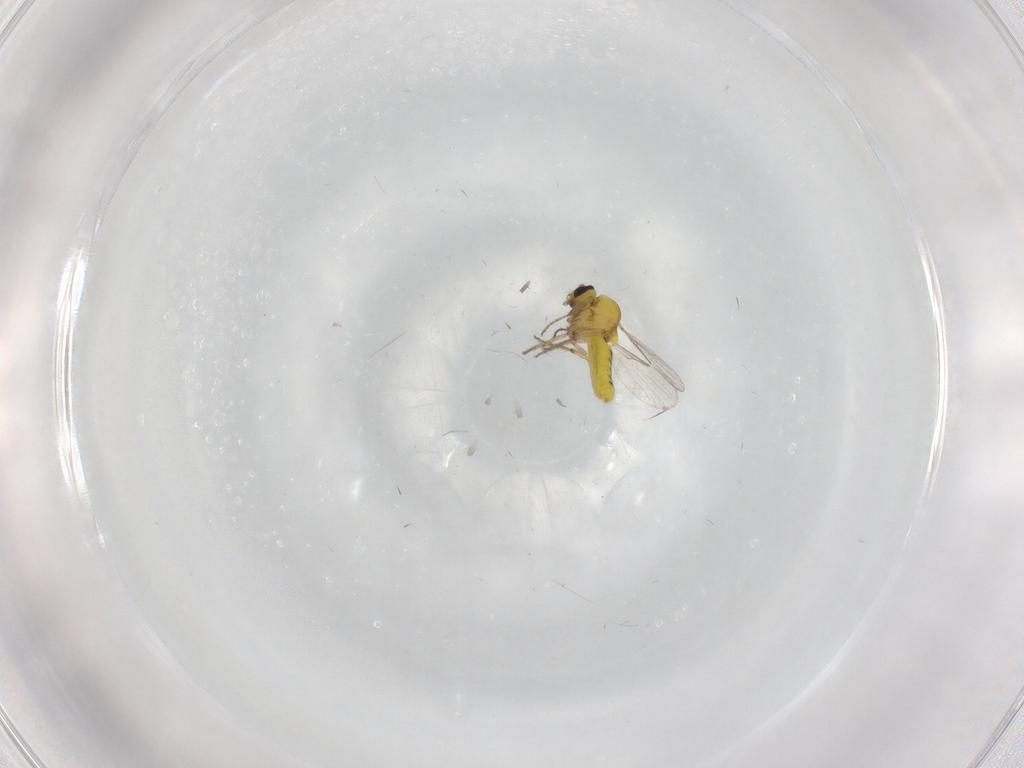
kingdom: Animalia
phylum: Arthropoda
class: Insecta
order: Diptera
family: Ceratopogonidae
